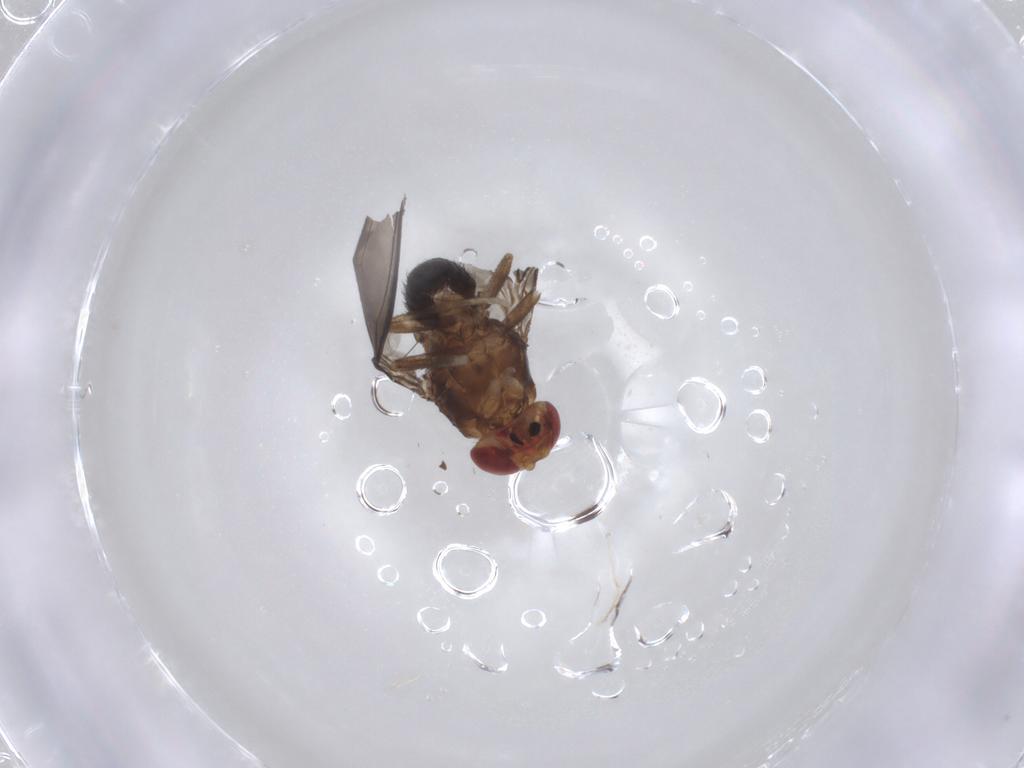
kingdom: Animalia
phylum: Arthropoda
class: Insecta
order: Diptera
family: Drosophilidae
